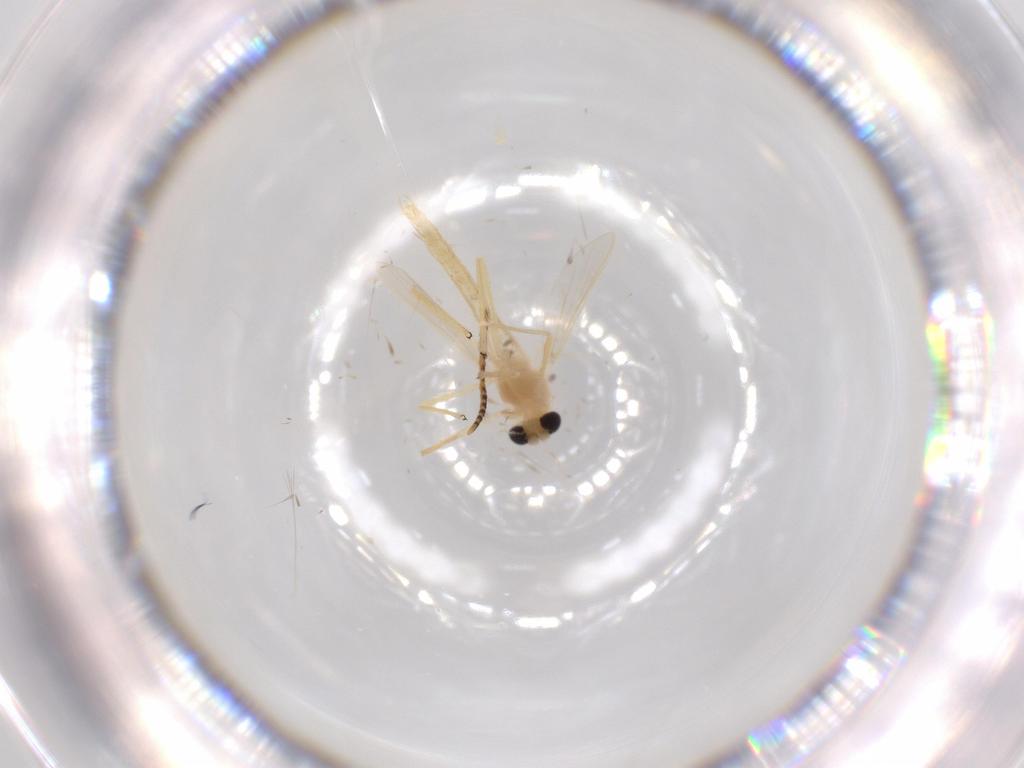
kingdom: Animalia
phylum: Arthropoda
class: Insecta
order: Diptera
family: Chironomidae
